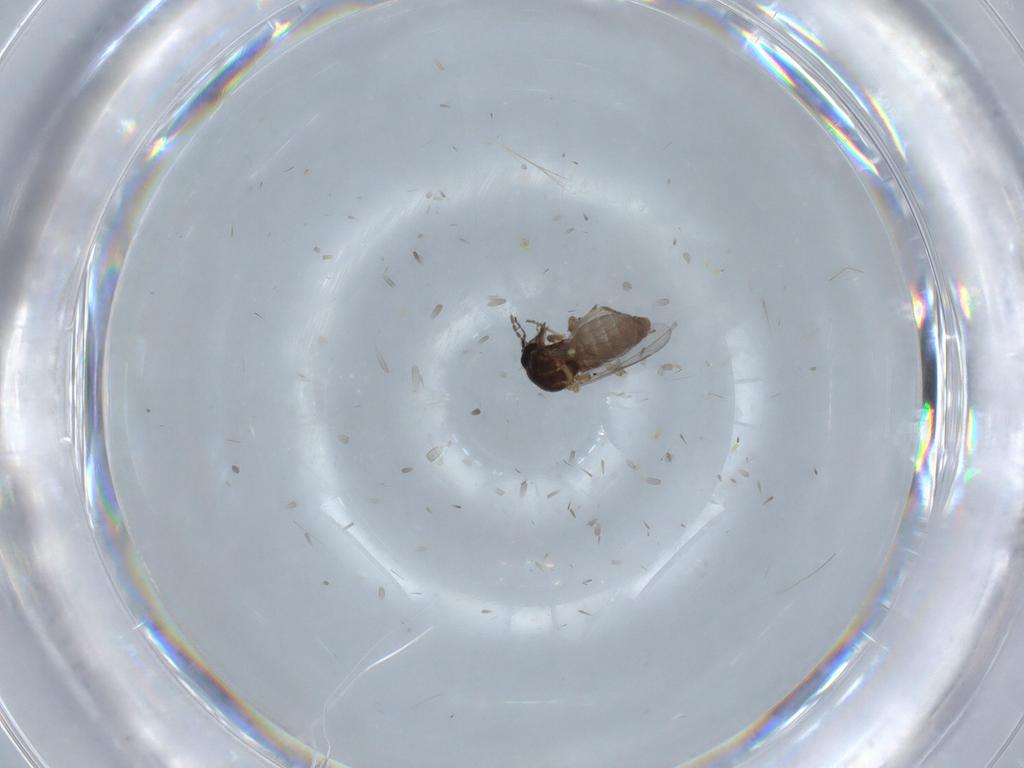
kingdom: Animalia
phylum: Arthropoda
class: Insecta
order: Diptera
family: Ceratopogonidae
